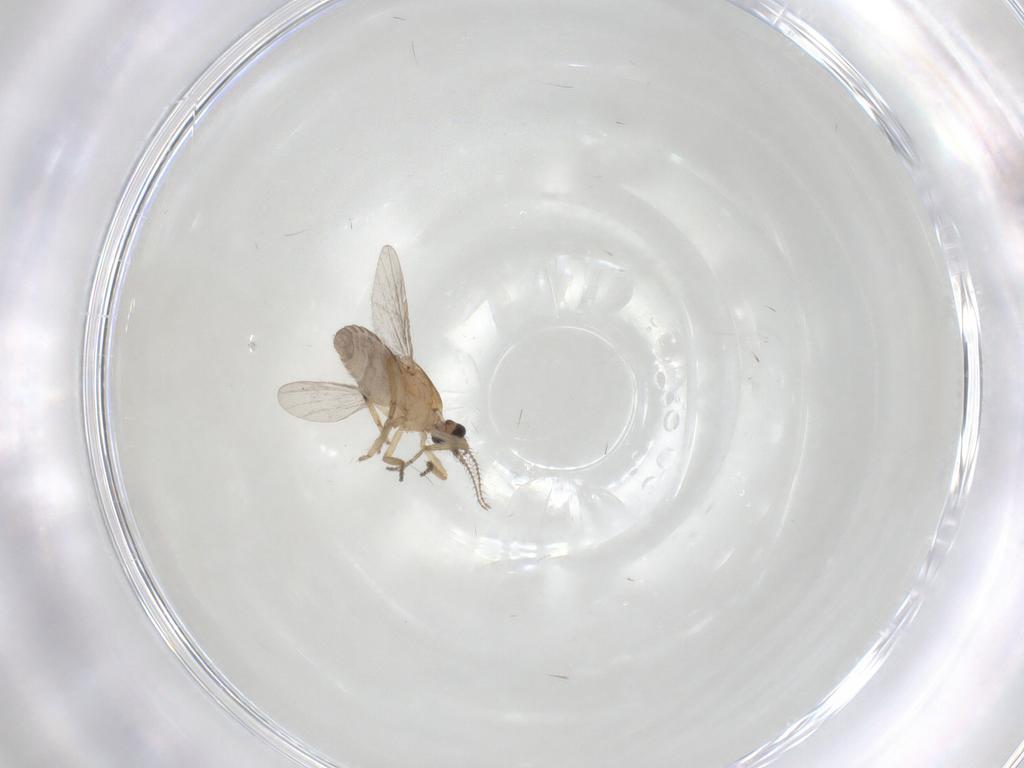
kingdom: Animalia
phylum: Arthropoda
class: Insecta
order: Diptera
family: Ceratopogonidae
